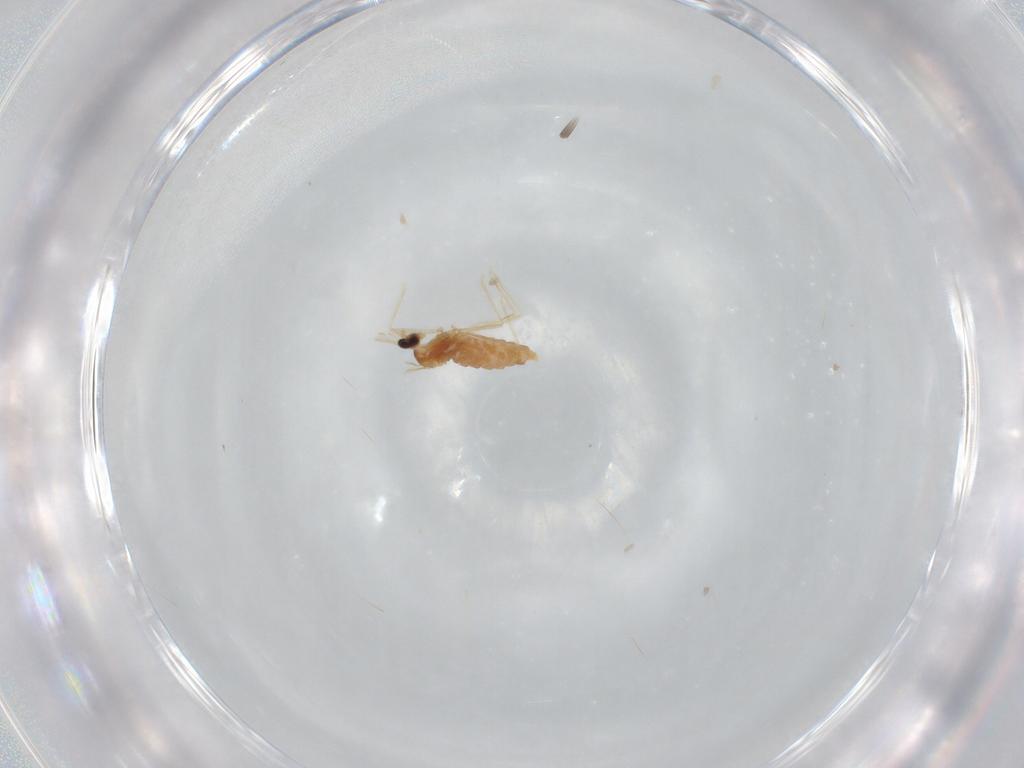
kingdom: Animalia
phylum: Arthropoda
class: Insecta
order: Diptera
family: Cecidomyiidae
